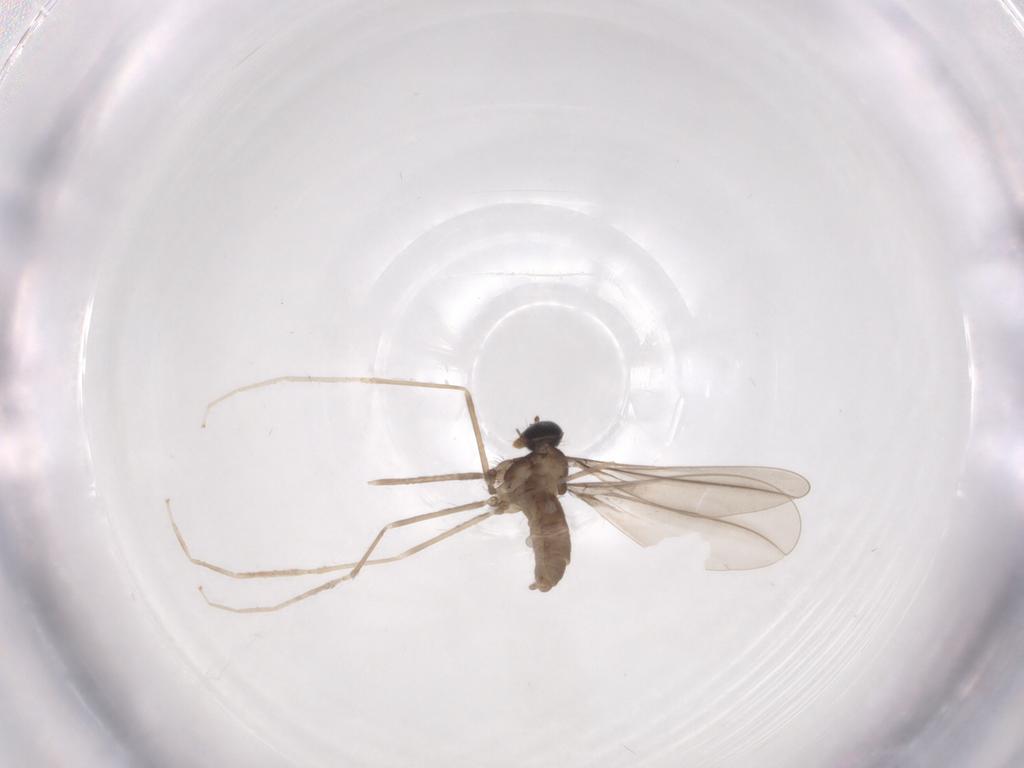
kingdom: Animalia
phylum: Arthropoda
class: Insecta
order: Diptera
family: Cecidomyiidae
